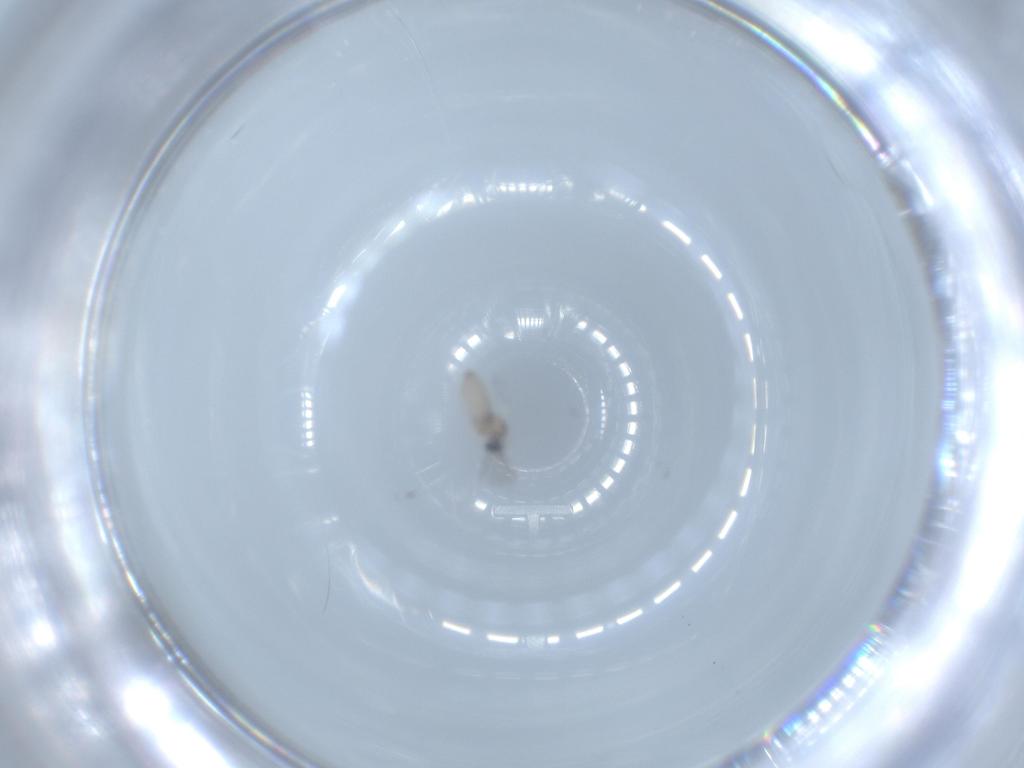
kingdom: Animalia
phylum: Arthropoda
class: Insecta
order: Diptera
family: Cecidomyiidae
